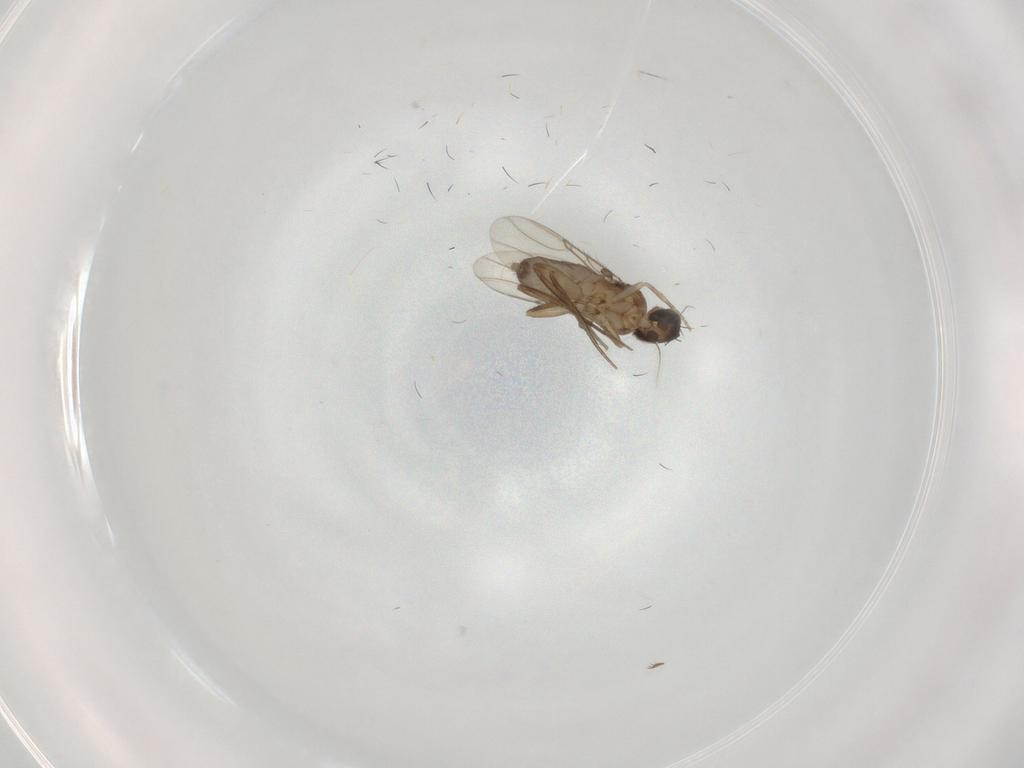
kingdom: Animalia
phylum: Arthropoda
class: Insecta
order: Diptera
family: Phoridae
